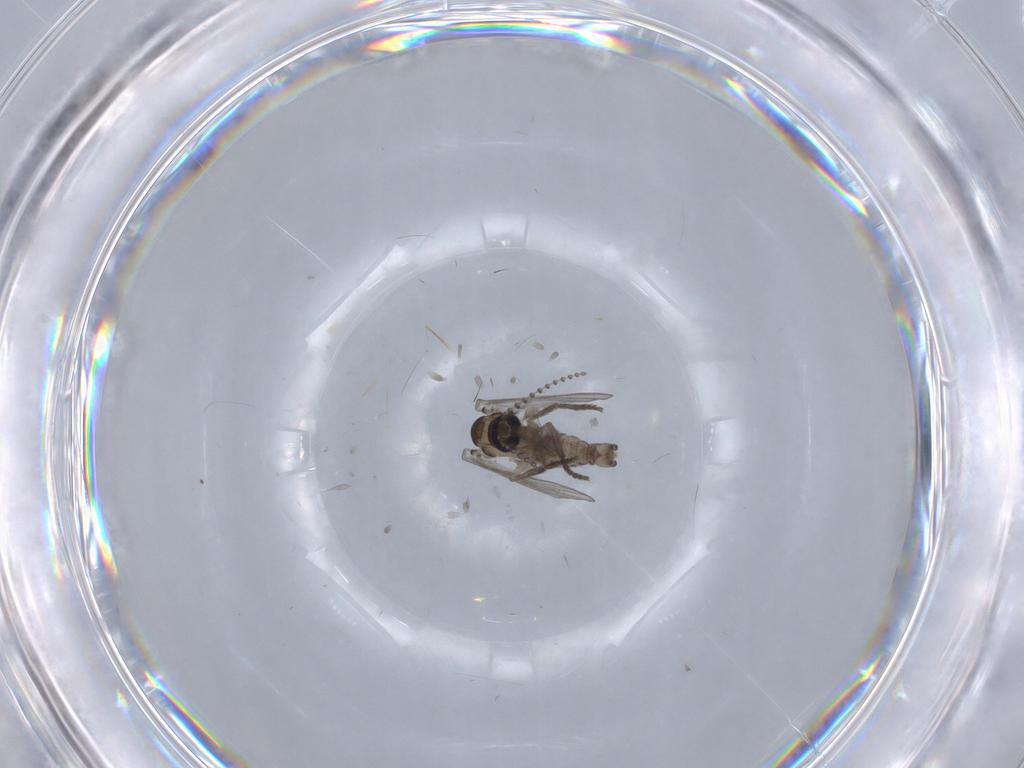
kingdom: Animalia
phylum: Arthropoda
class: Insecta
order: Diptera
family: Psychodidae
